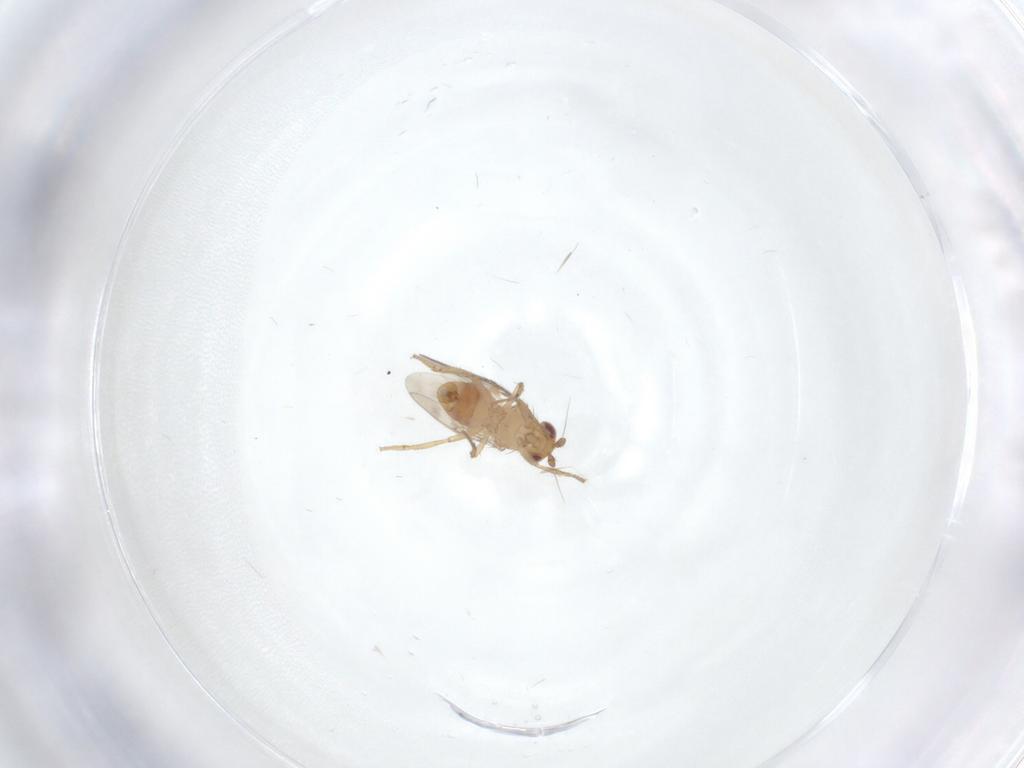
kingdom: Animalia
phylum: Arthropoda
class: Insecta
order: Diptera
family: Sphaeroceridae
